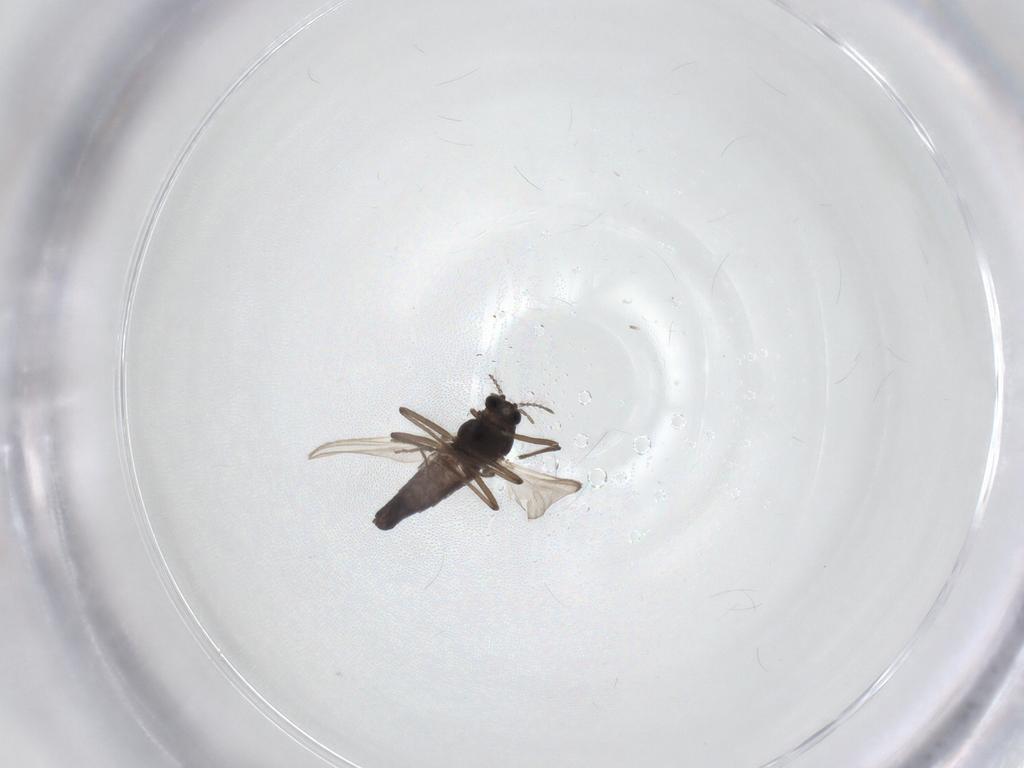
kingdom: Animalia
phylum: Arthropoda
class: Insecta
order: Diptera
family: Chironomidae
